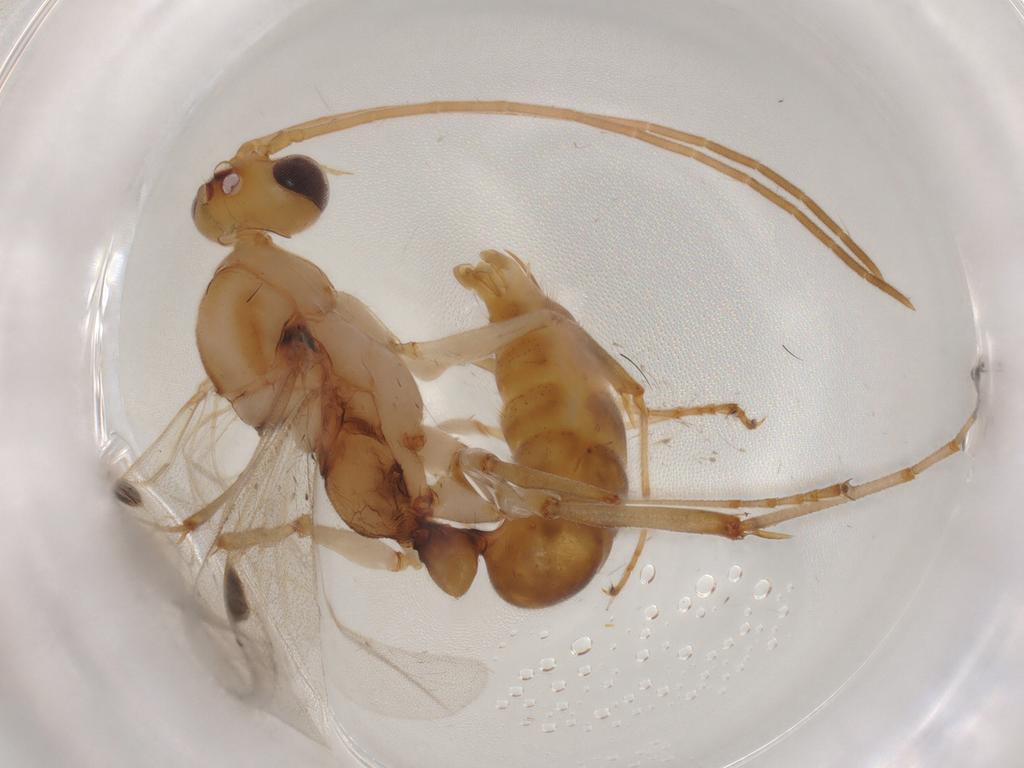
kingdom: Animalia
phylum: Arthropoda
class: Insecta
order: Hymenoptera
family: Formicidae
